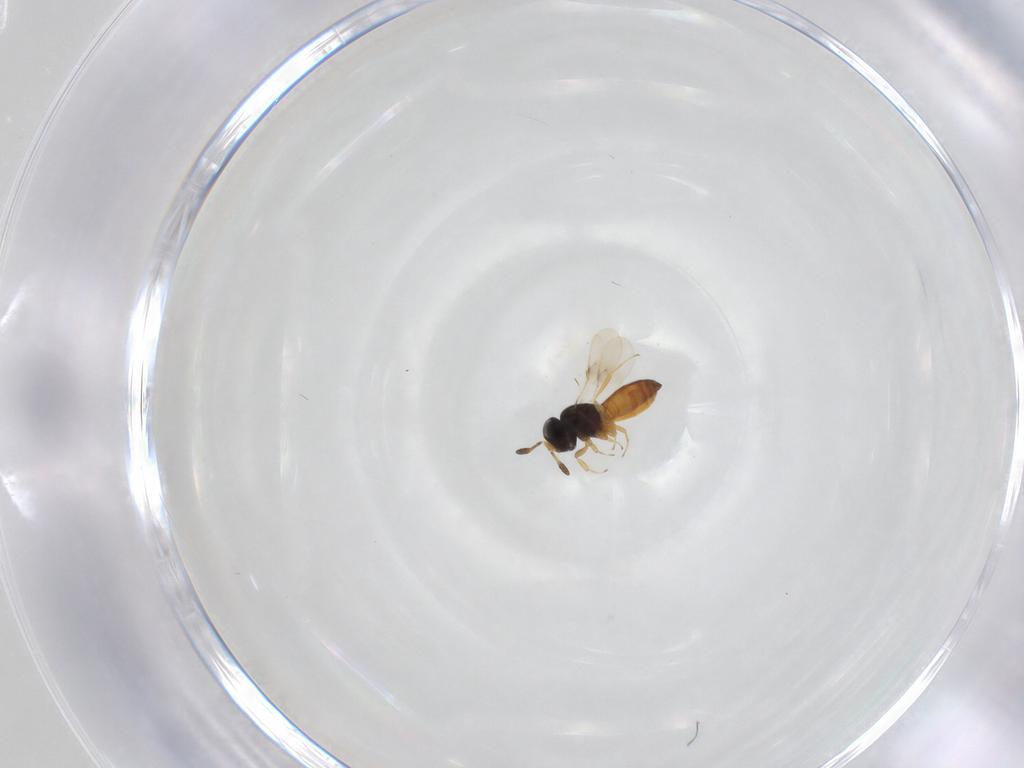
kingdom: Animalia
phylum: Arthropoda
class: Insecta
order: Hymenoptera
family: Scelionidae
